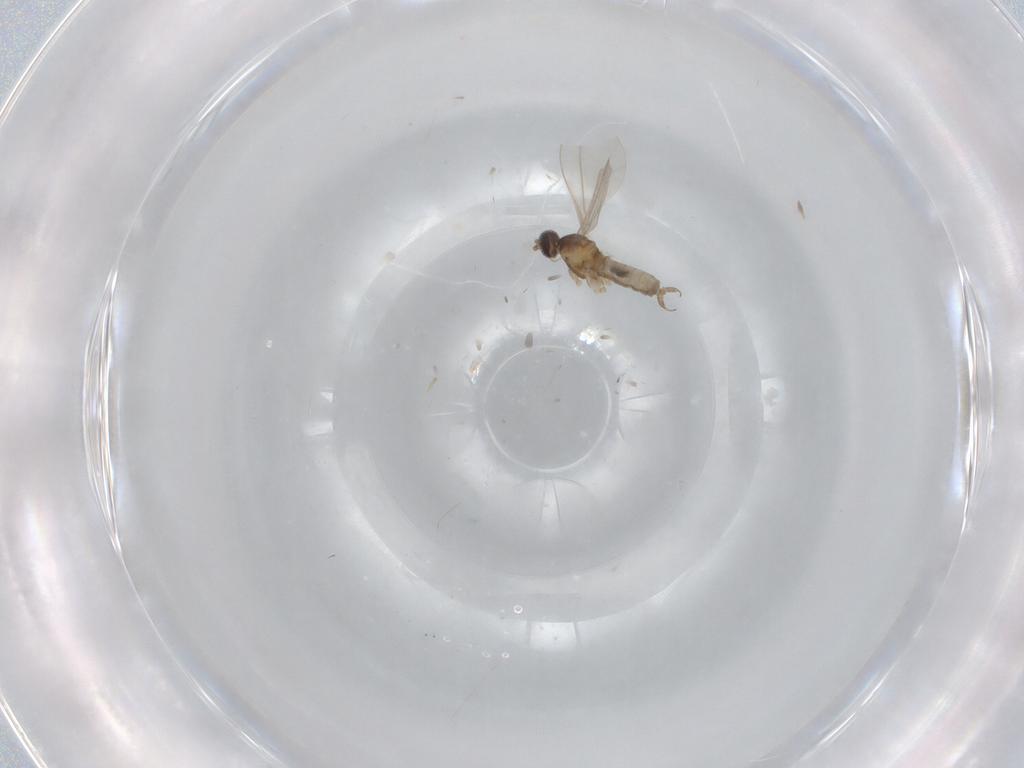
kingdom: Animalia
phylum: Arthropoda
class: Insecta
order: Diptera
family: Cecidomyiidae
